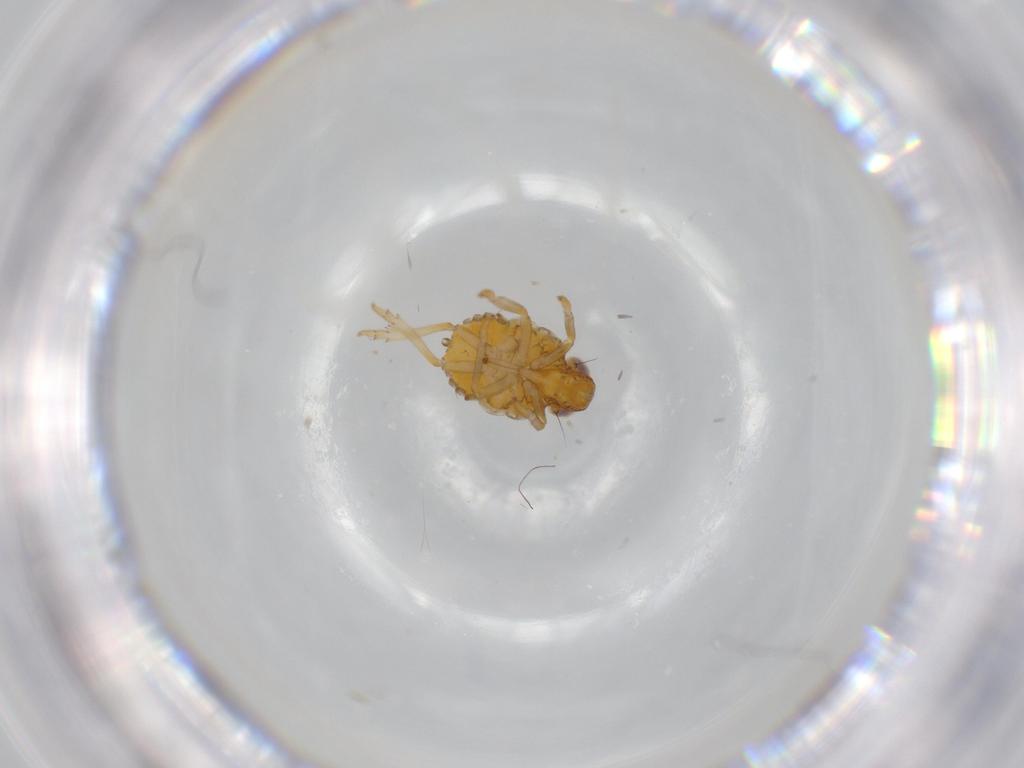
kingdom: Animalia
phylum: Arthropoda
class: Insecta
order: Hemiptera
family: Issidae
